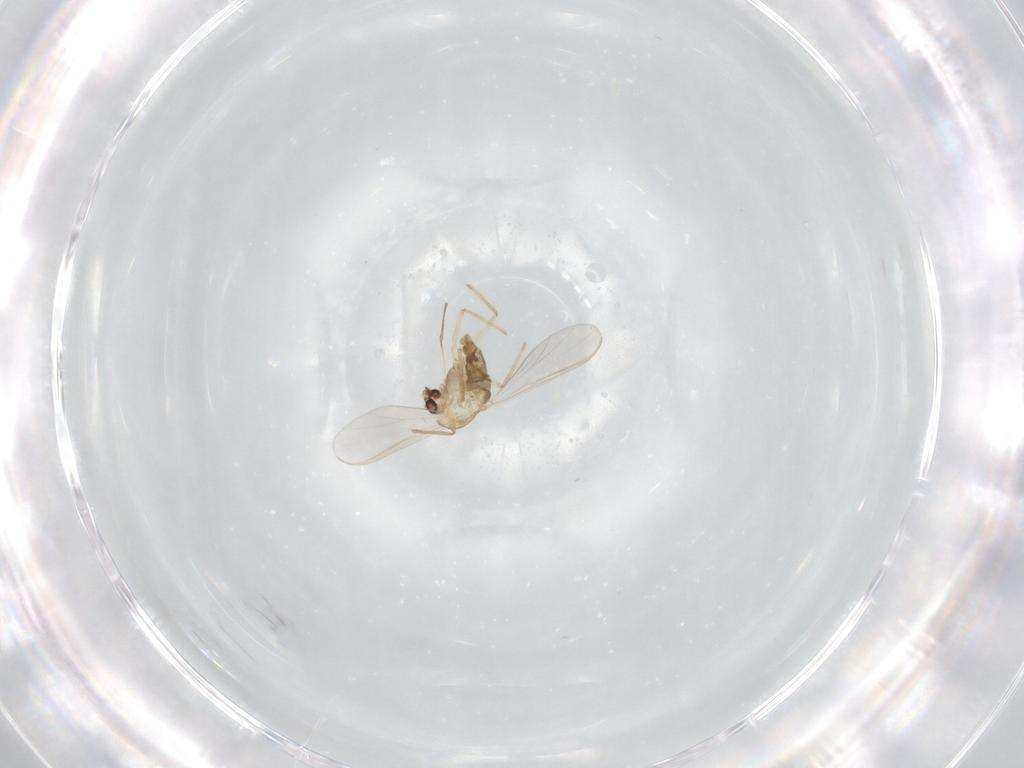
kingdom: Animalia
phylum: Arthropoda
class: Insecta
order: Diptera
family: Chironomidae
